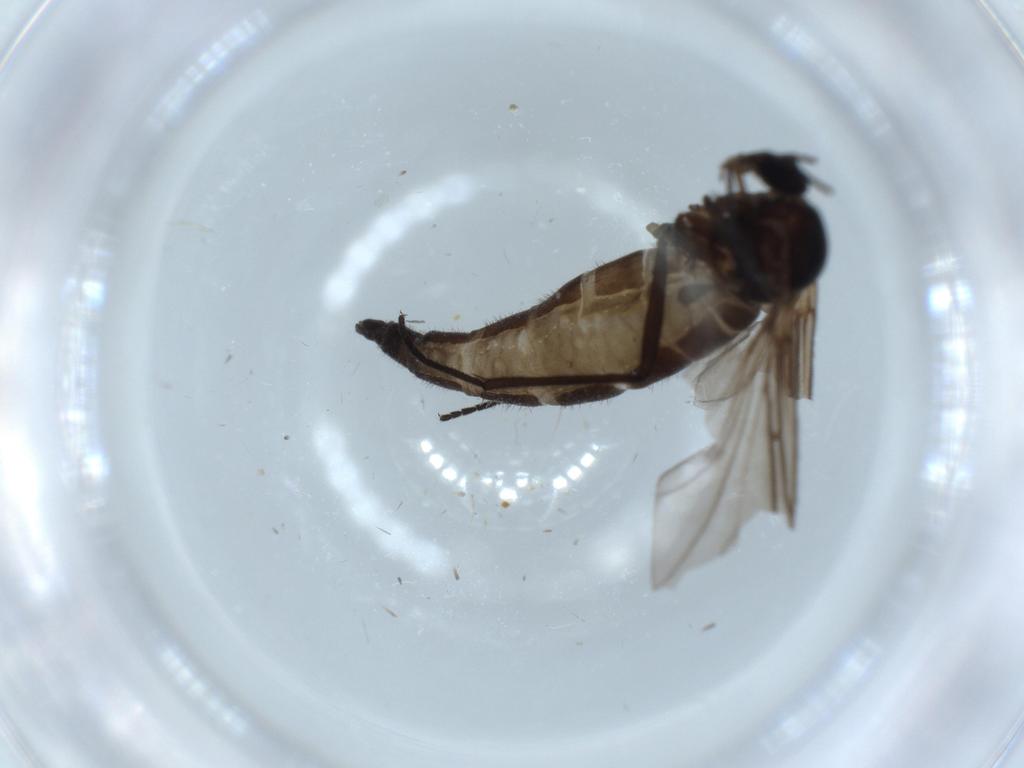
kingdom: Animalia
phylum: Arthropoda
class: Insecta
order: Diptera
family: Sciaridae
